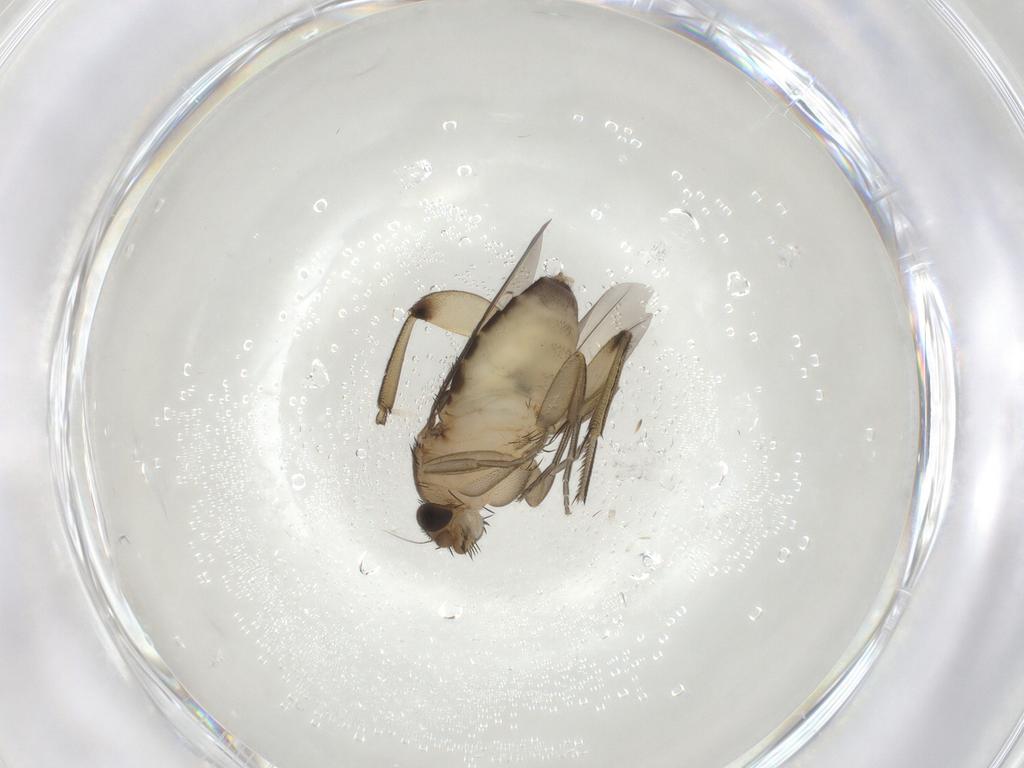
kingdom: Animalia
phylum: Arthropoda
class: Insecta
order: Diptera
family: Phoridae
